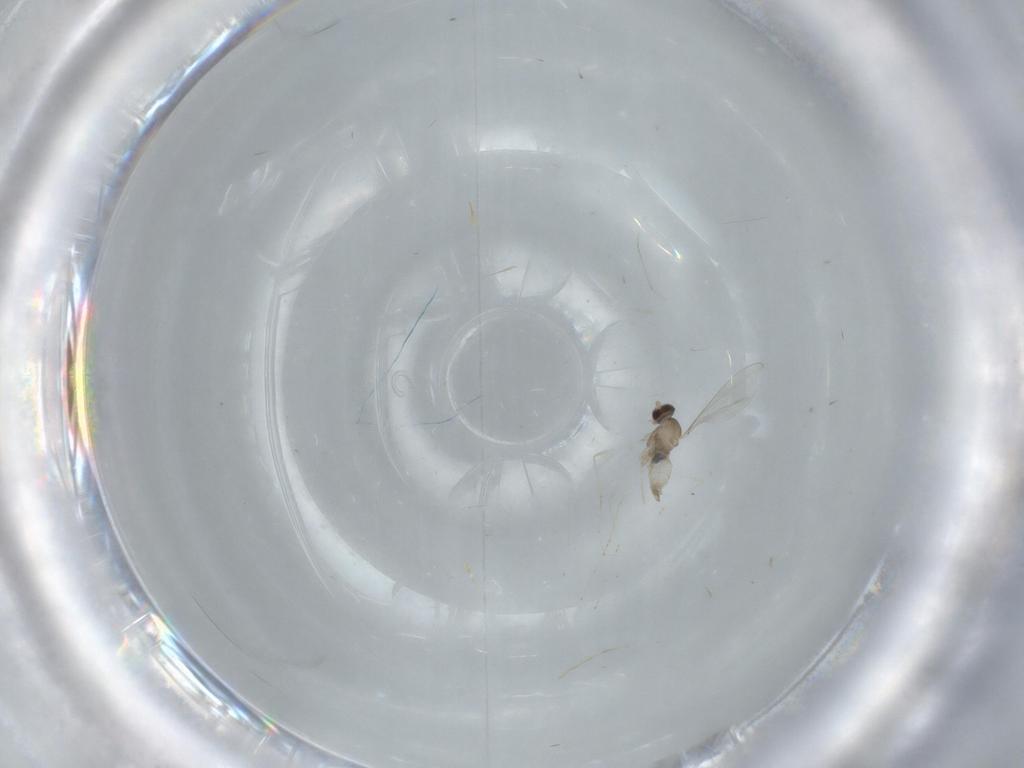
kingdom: Animalia
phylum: Arthropoda
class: Insecta
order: Diptera
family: Cecidomyiidae
